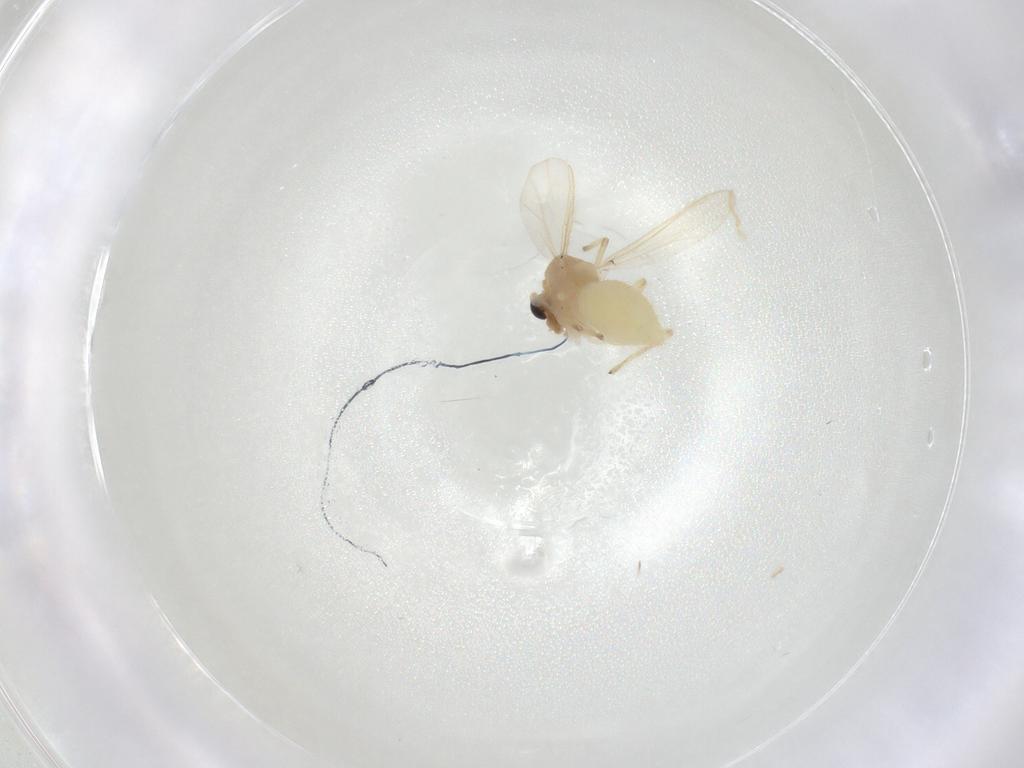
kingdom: Animalia
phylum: Arthropoda
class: Insecta
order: Diptera
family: Chironomidae
